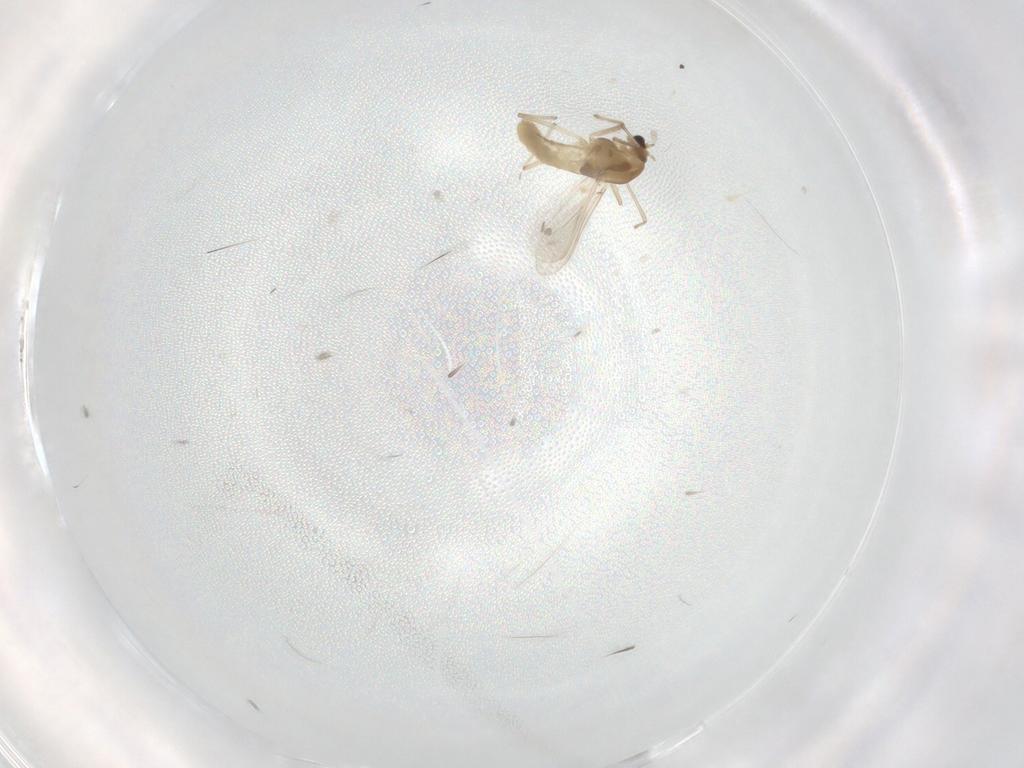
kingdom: Animalia
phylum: Arthropoda
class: Insecta
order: Diptera
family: Chironomidae
